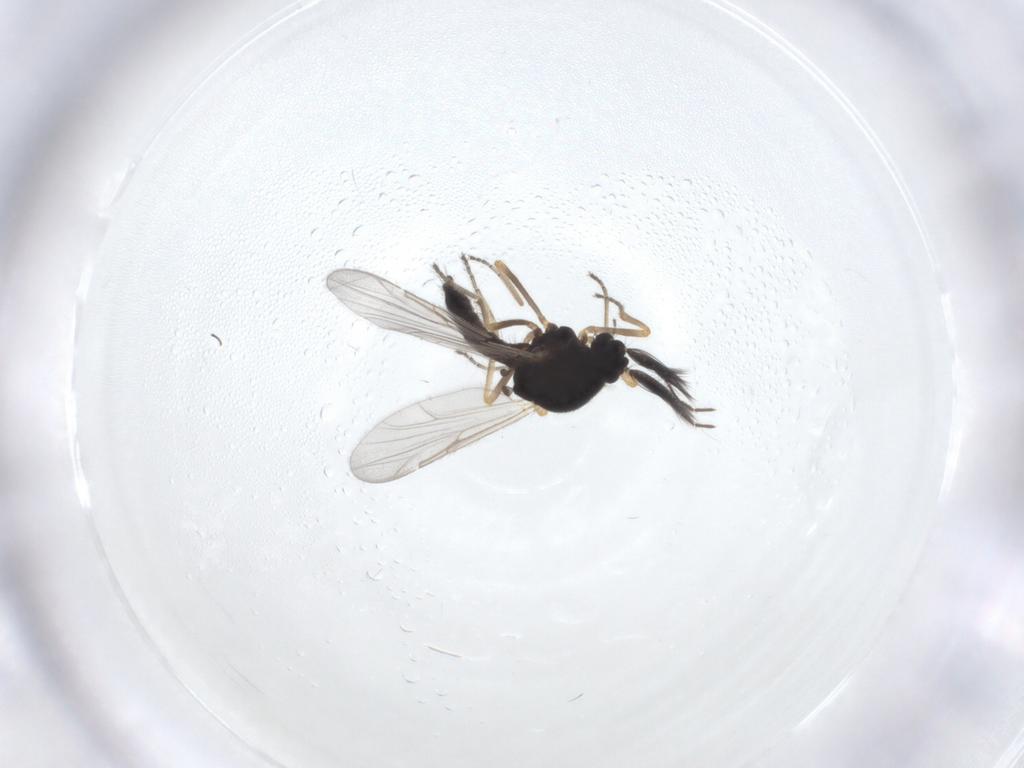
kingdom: Animalia
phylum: Arthropoda
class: Insecta
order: Diptera
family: Ceratopogonidae
